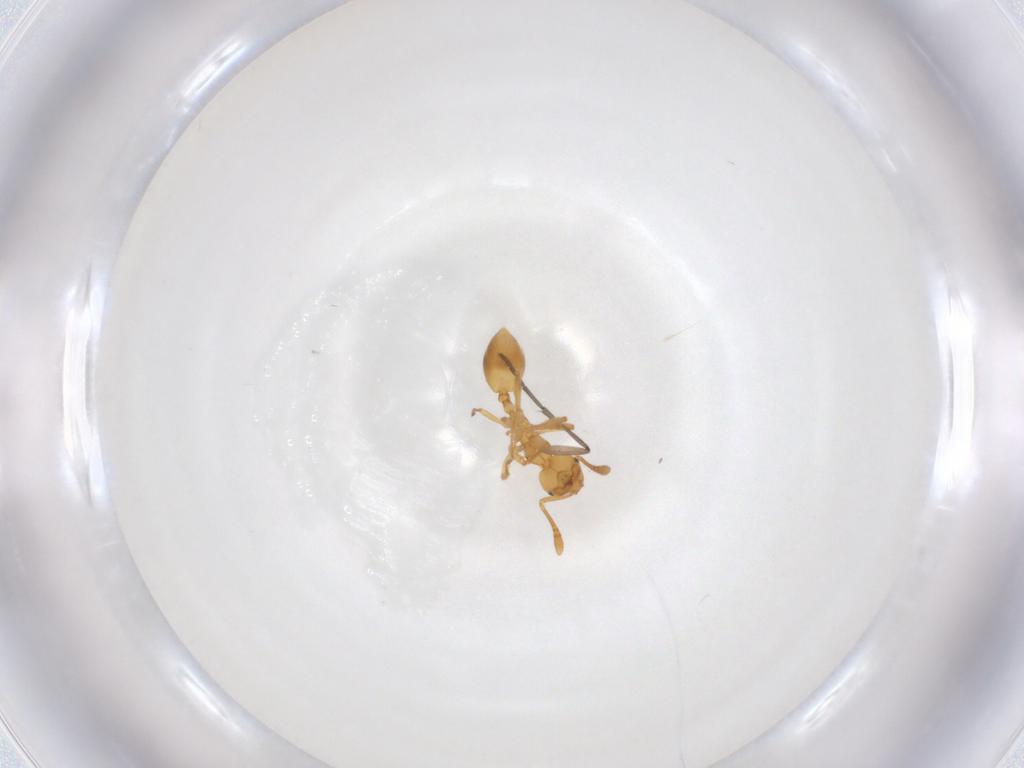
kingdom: Animalia
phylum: Arthropoda
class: Insecta
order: Hymenoptera
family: Formicidae
